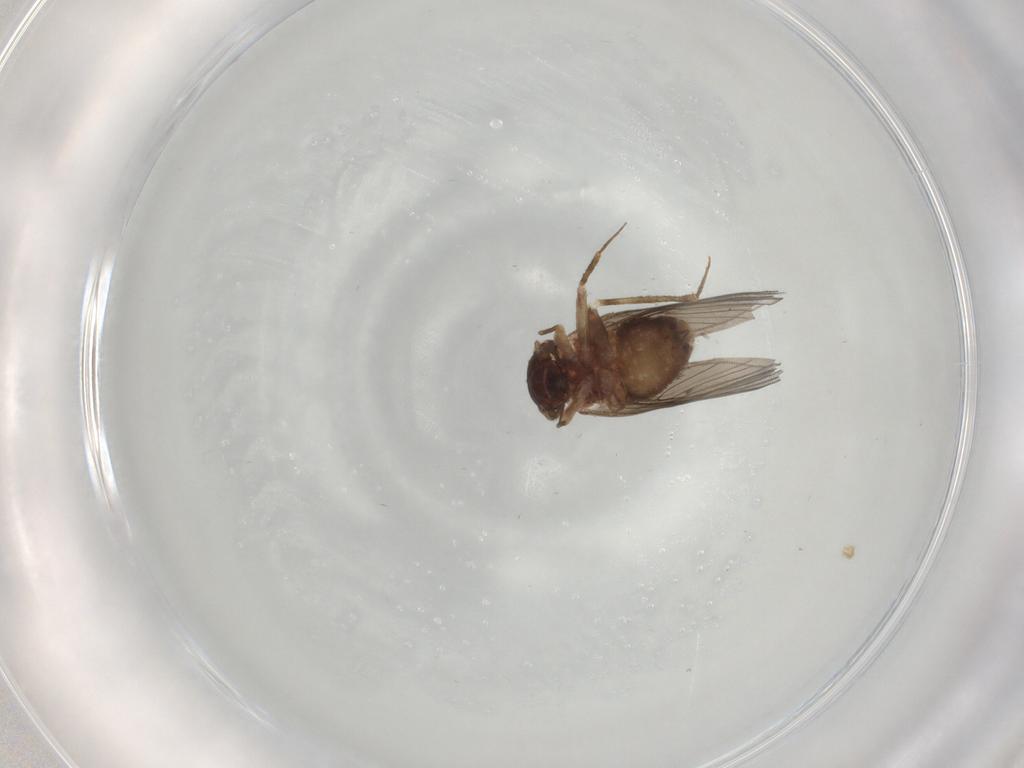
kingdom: Animalia
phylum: Arthropoda
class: Insecta
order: Psocodea
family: Lepidopsocidae
